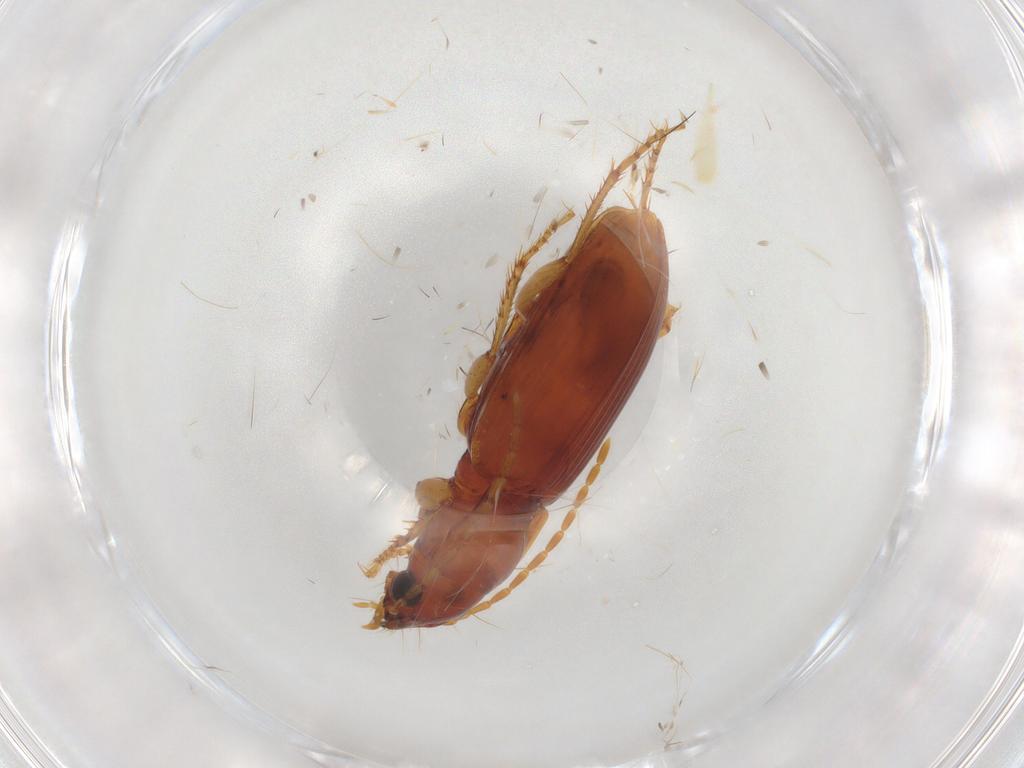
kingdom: Animalia
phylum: Arthropoda
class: Insecta
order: Coleoptera
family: Carabidae
